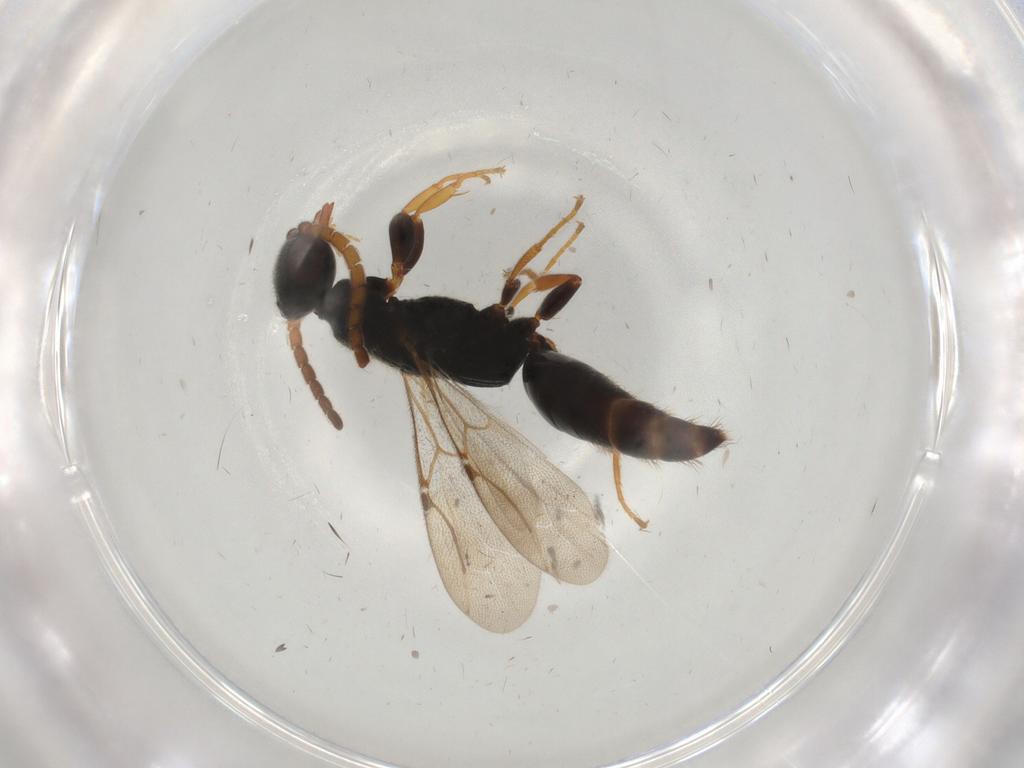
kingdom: Animalia
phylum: Arthropoda
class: Insecta
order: Hymenoptera
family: Bethylidae
